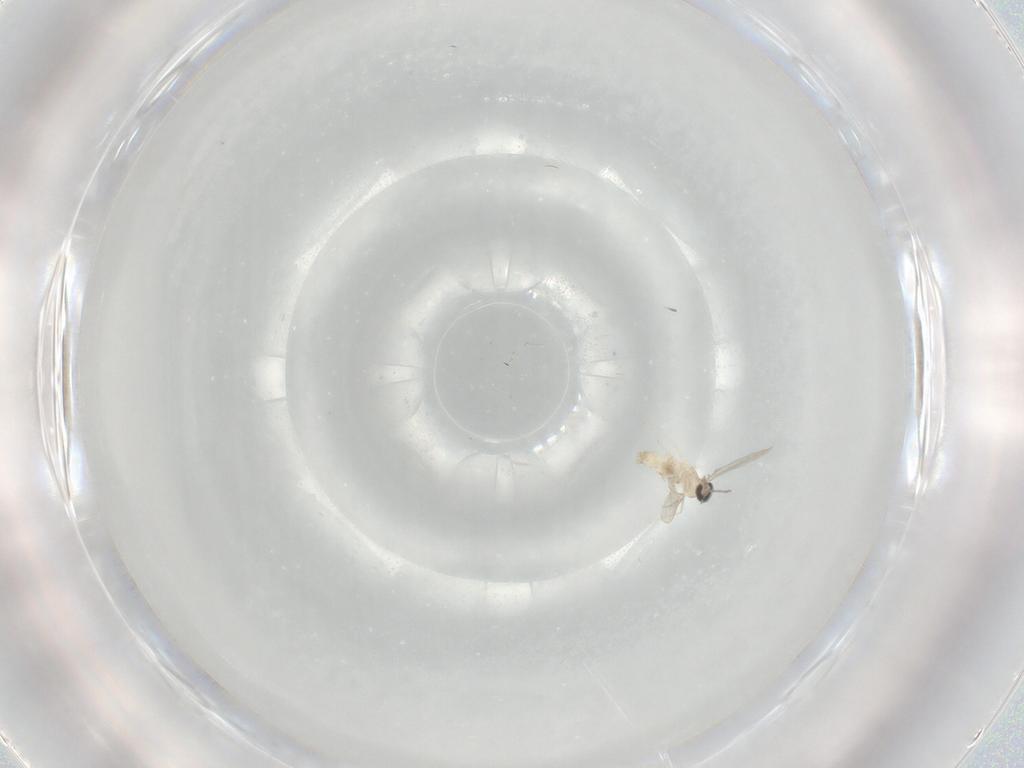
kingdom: Animalia
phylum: Arthropoda
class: Insecta
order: Diptera
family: Cecidomyiidae
